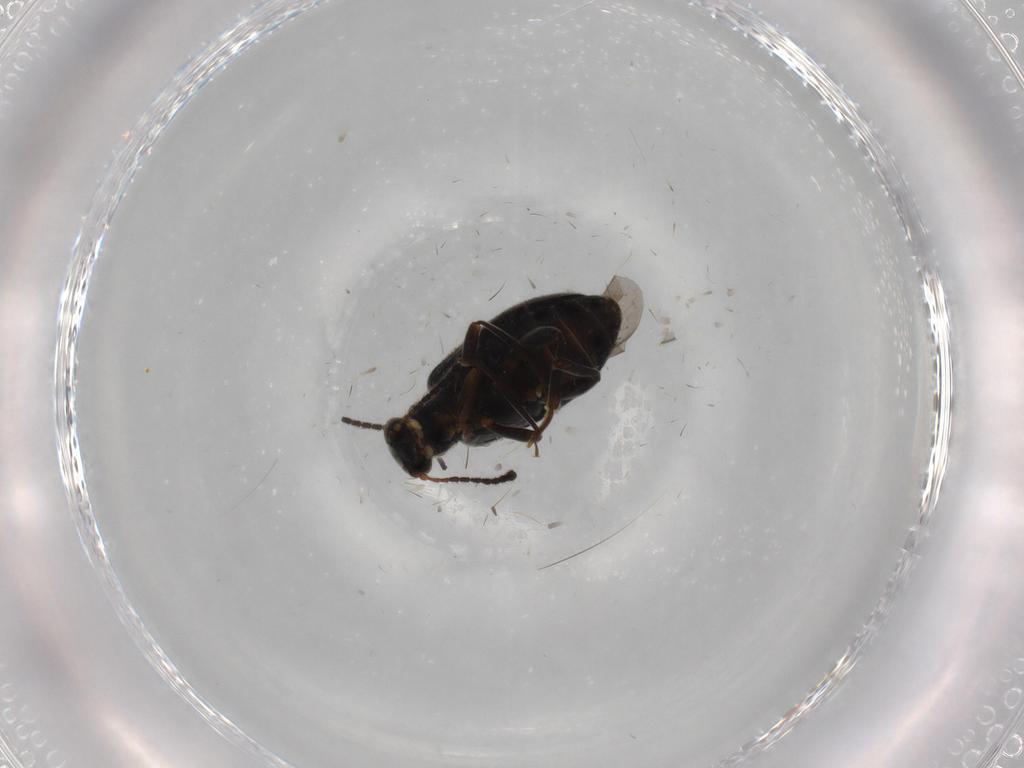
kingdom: Animalia
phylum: Arthropoda
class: Insecta
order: Coleoptera
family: Aderidae
